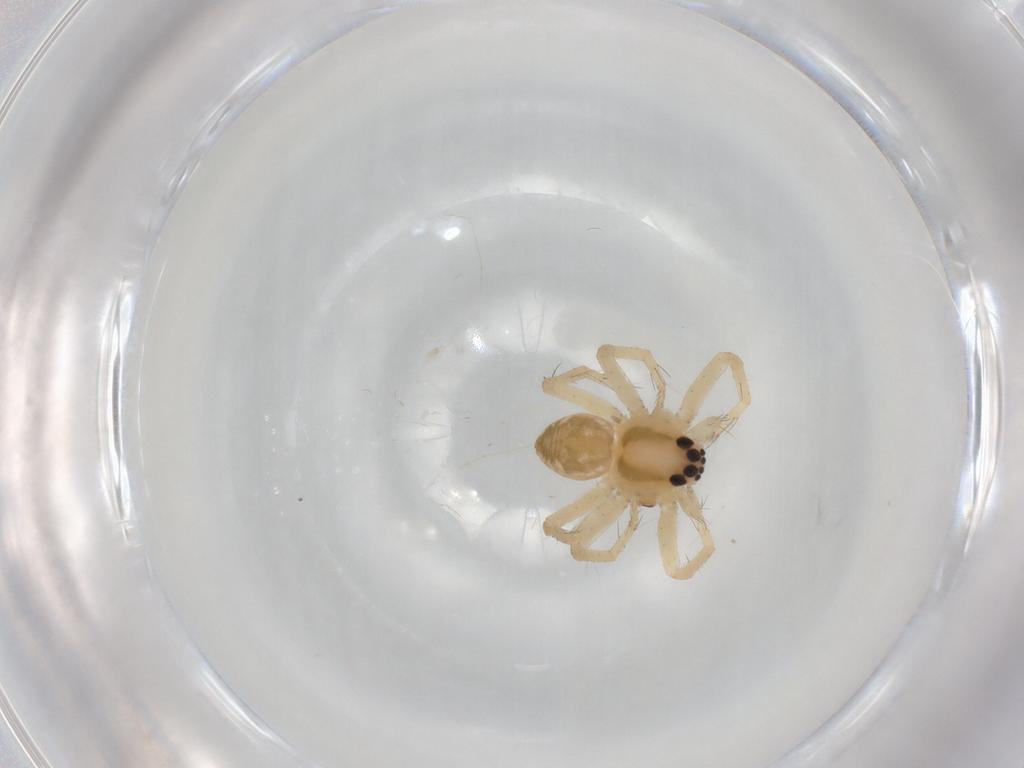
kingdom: Animalia
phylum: Arthropoda
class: Arachnida
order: Araneae
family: Pisauridae
